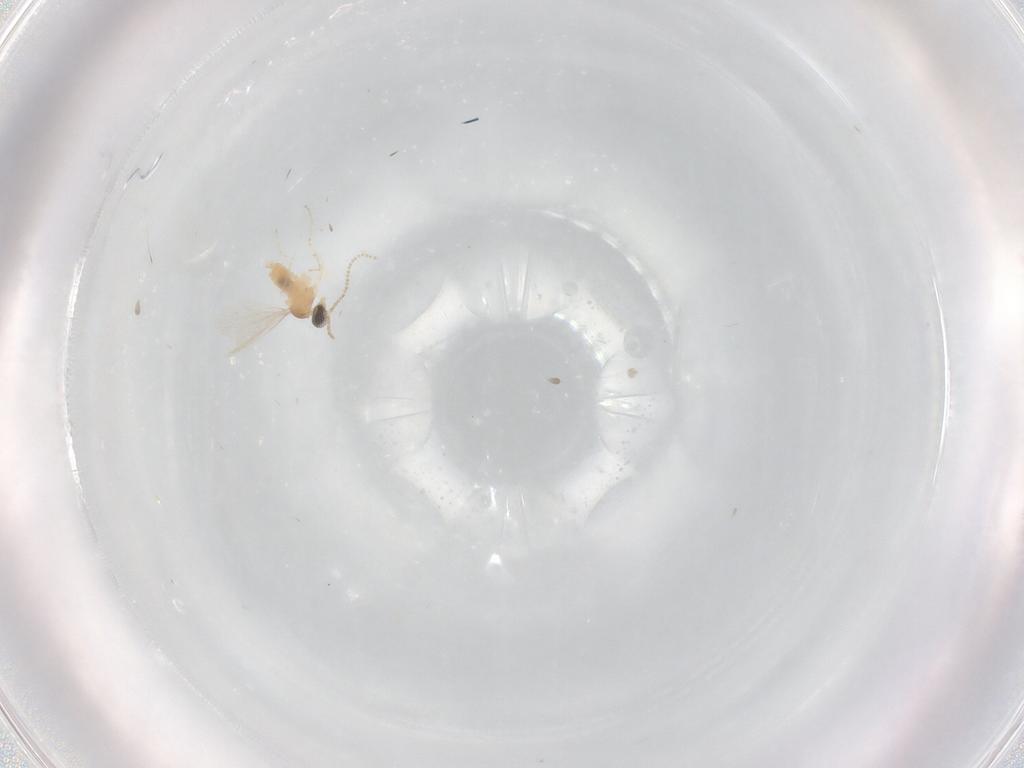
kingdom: Animalia
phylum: Arthropoda
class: Insecta
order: Diptera
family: Cecidomyiidae
